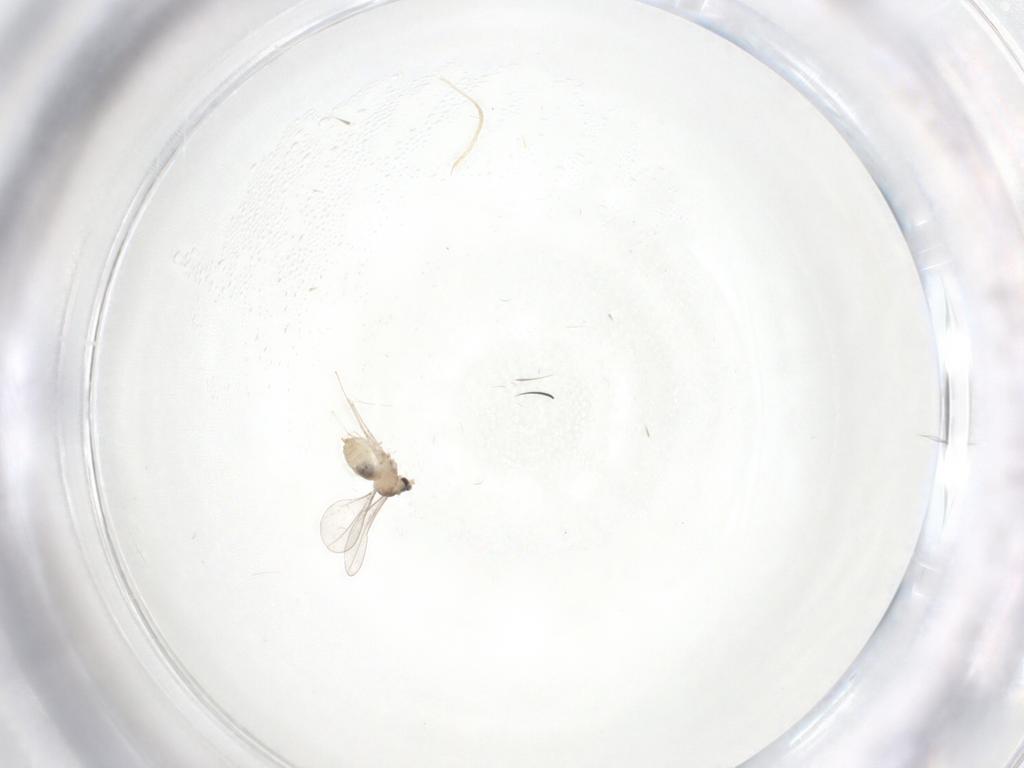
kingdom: Animalia
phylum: Arthropoda
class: Insecta
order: Diptera
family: Cecidomyiidae
